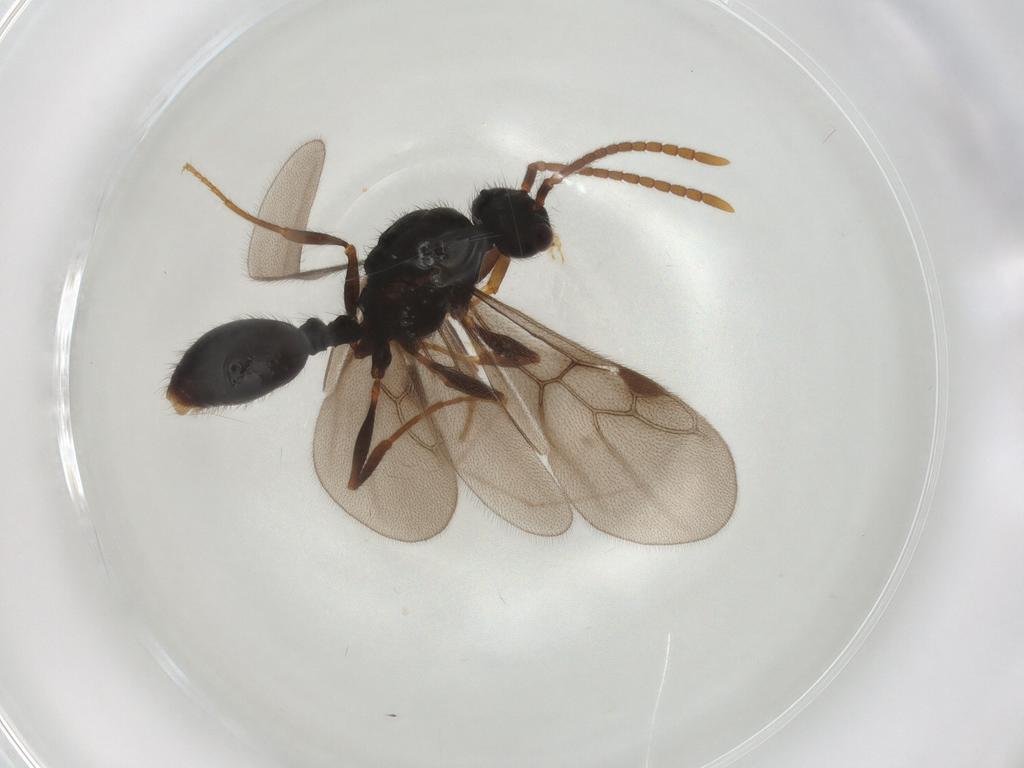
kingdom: Animalia
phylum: Arthropoda
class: Insecta
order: Hymenoptera
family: Formicidae
